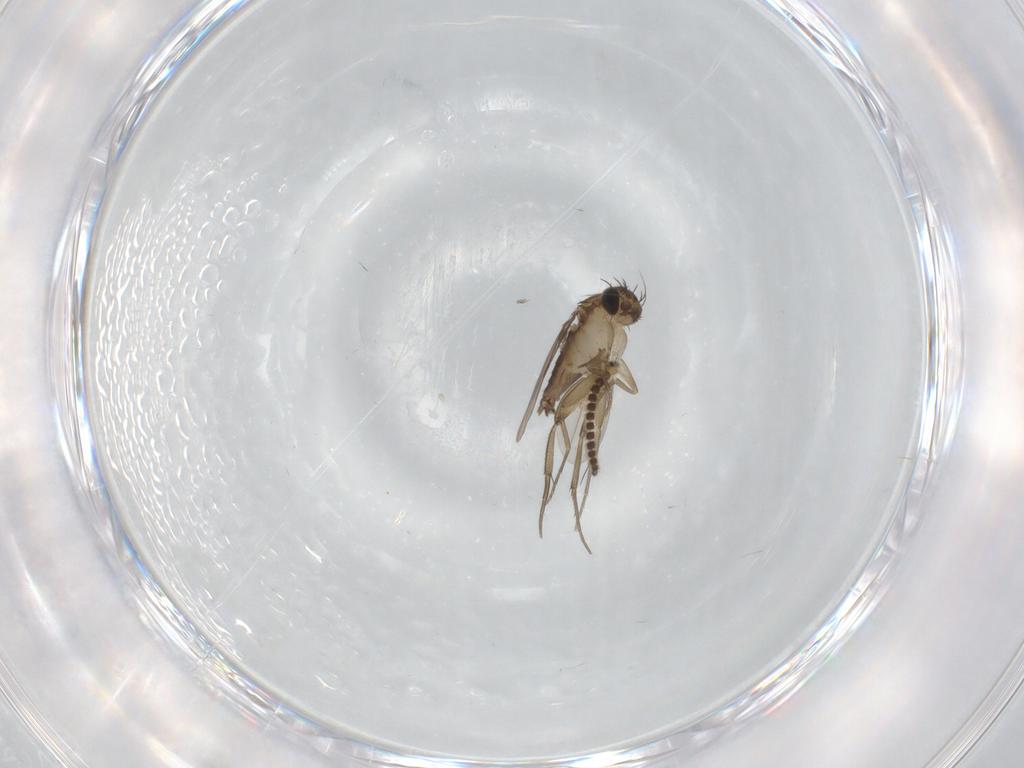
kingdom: Animalia
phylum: Arthropoda
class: Insecta
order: Diptera
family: Phoridae
